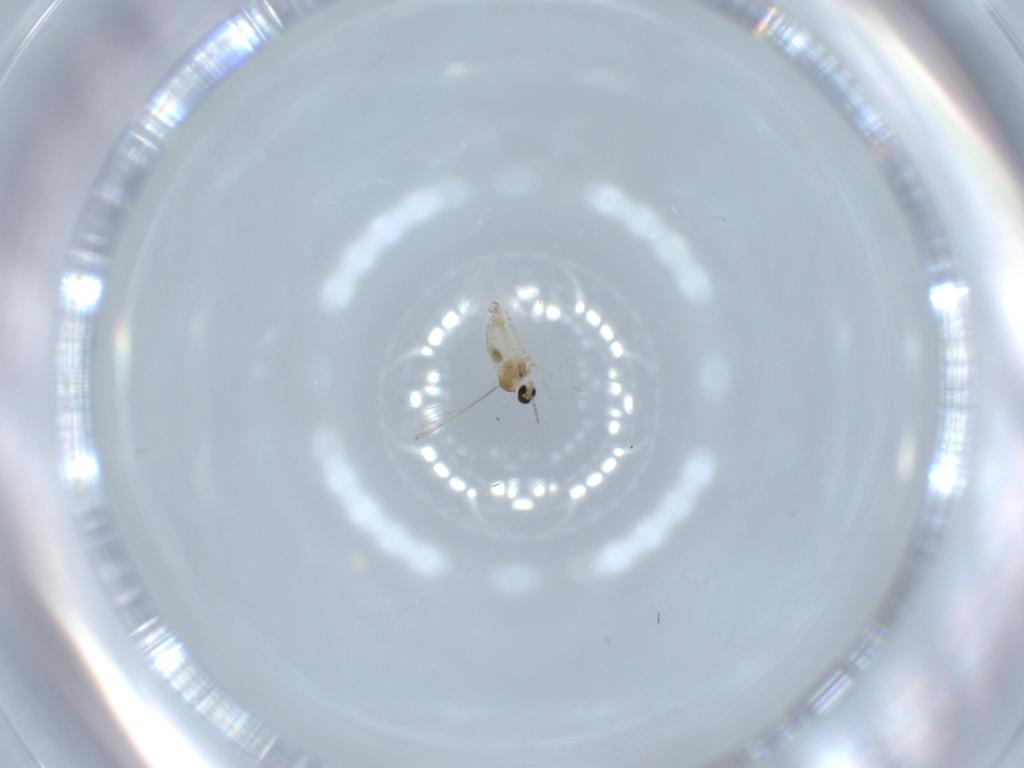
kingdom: Animalia
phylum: Arthropoda
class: Insecta
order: Diptera
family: Cecidomyiidae
